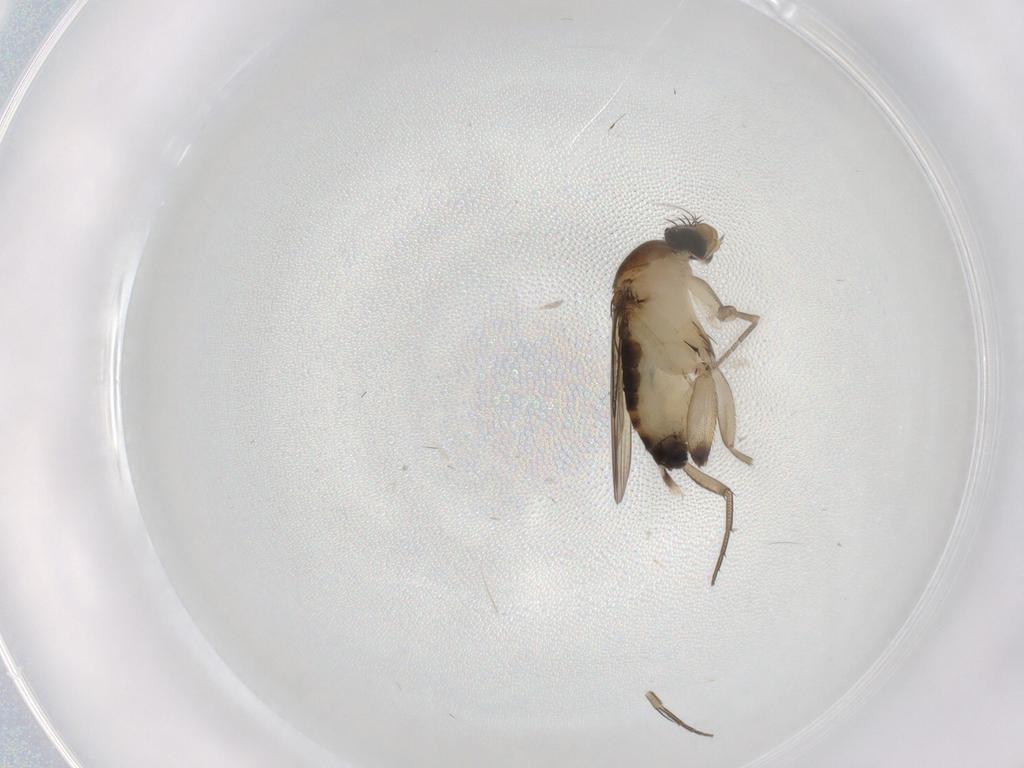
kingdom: Animalia
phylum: Arthropoda
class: Insecta
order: Diptera
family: Phoridae
